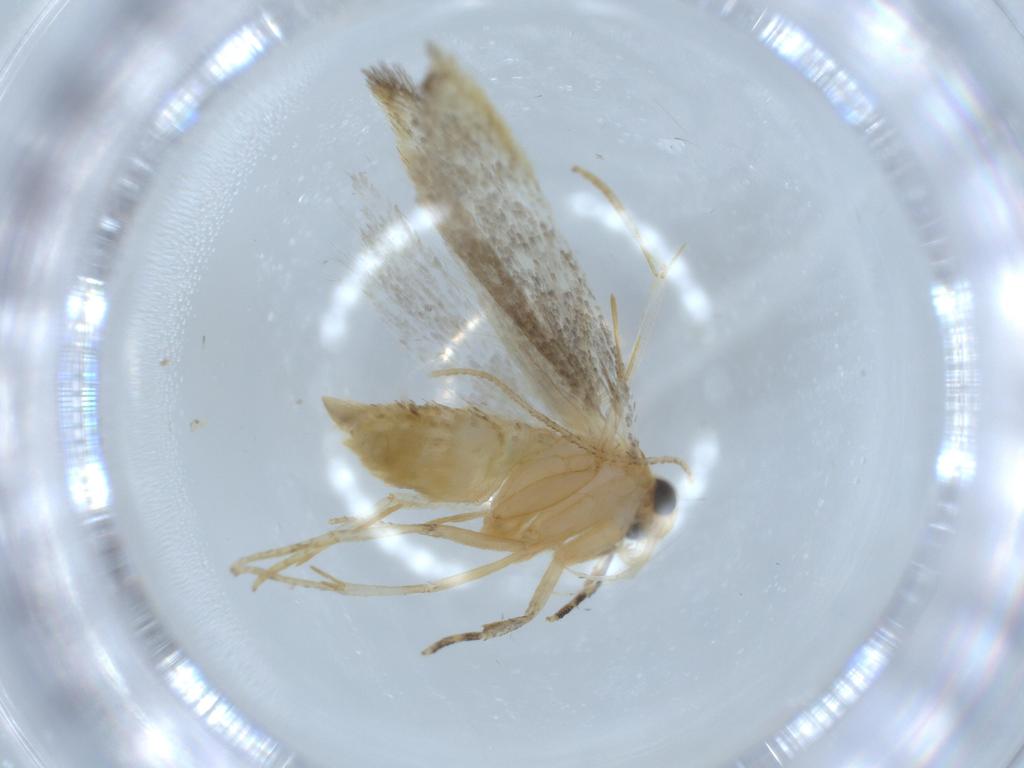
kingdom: Animalia
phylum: Arthropoda
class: Insecta
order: Lepidoptera
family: Autostichidae
